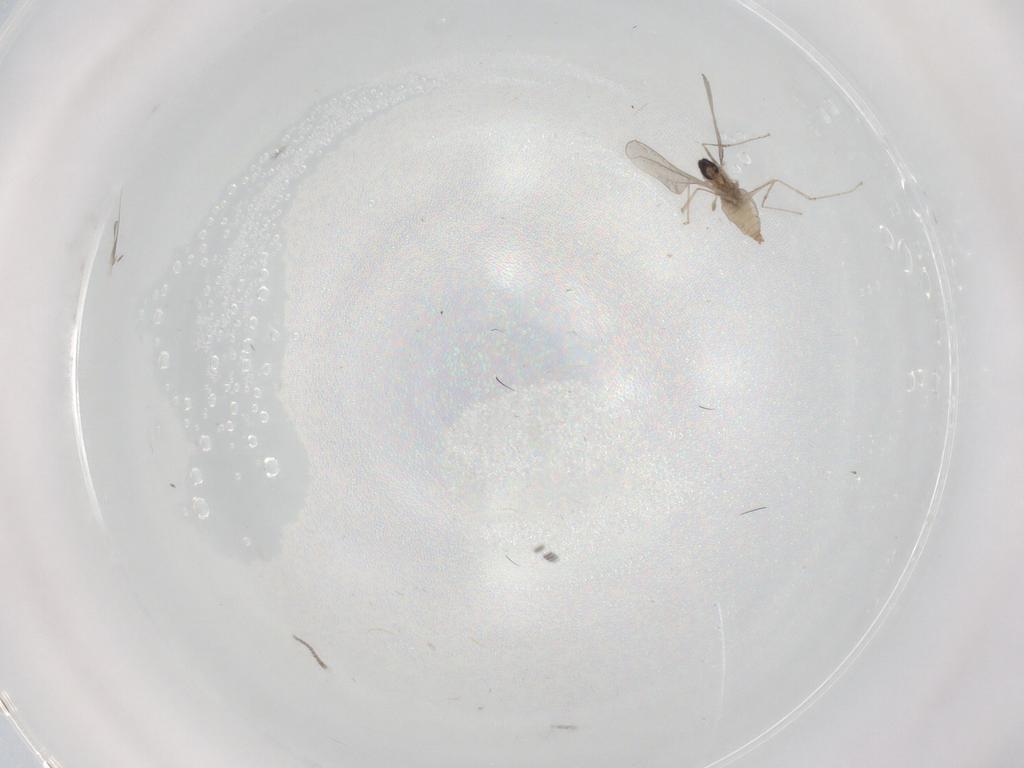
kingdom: Animalia
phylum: Arthropoda
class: Insecta
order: Diptera
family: Cecidomyiidae
